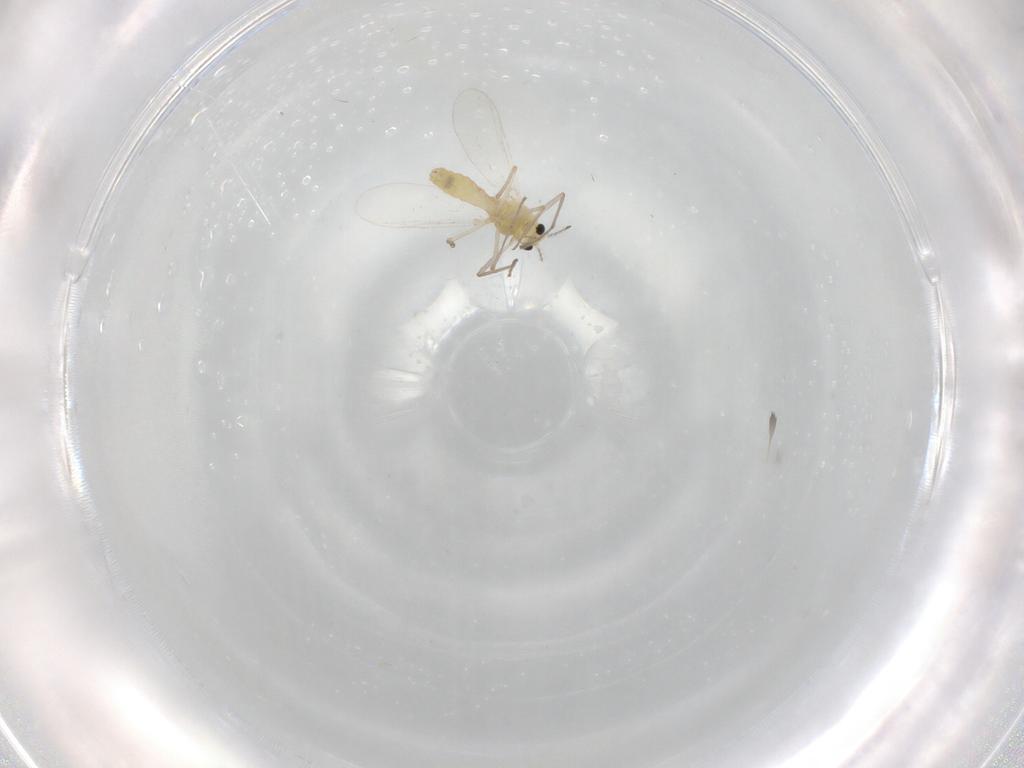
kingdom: Animalia
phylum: Arthropoda
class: Insecta
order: Diptera
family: Chironomidae
